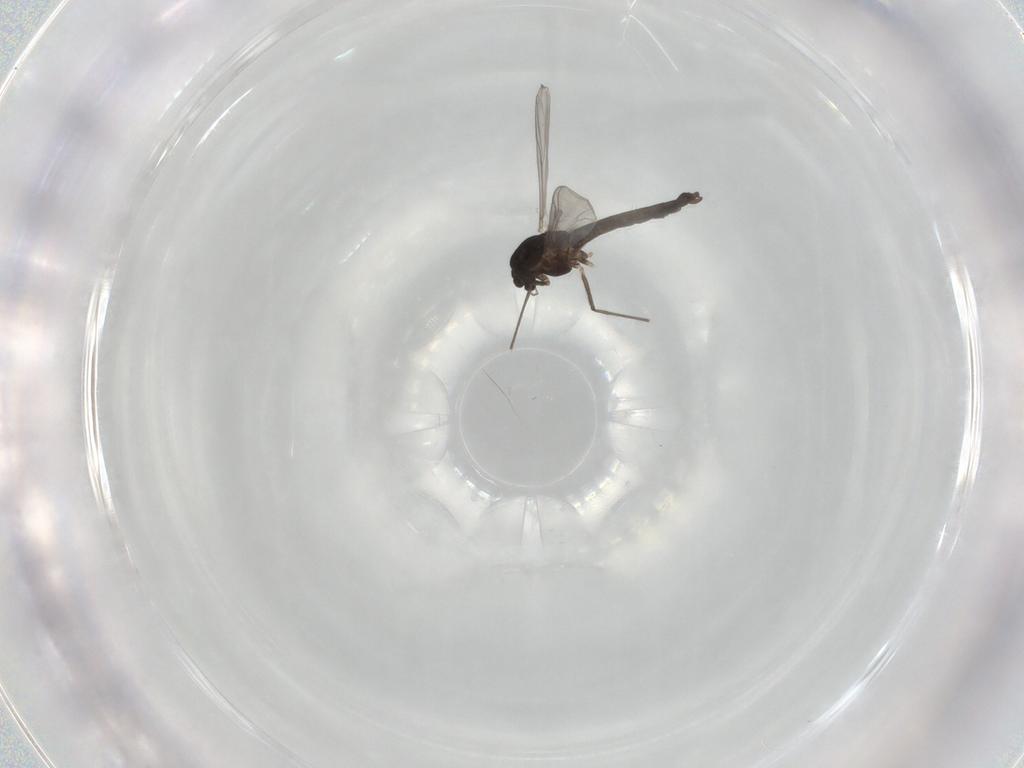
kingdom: Animalia
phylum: Arthropoda
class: Insecta
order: Diptera
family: Chironomidae
